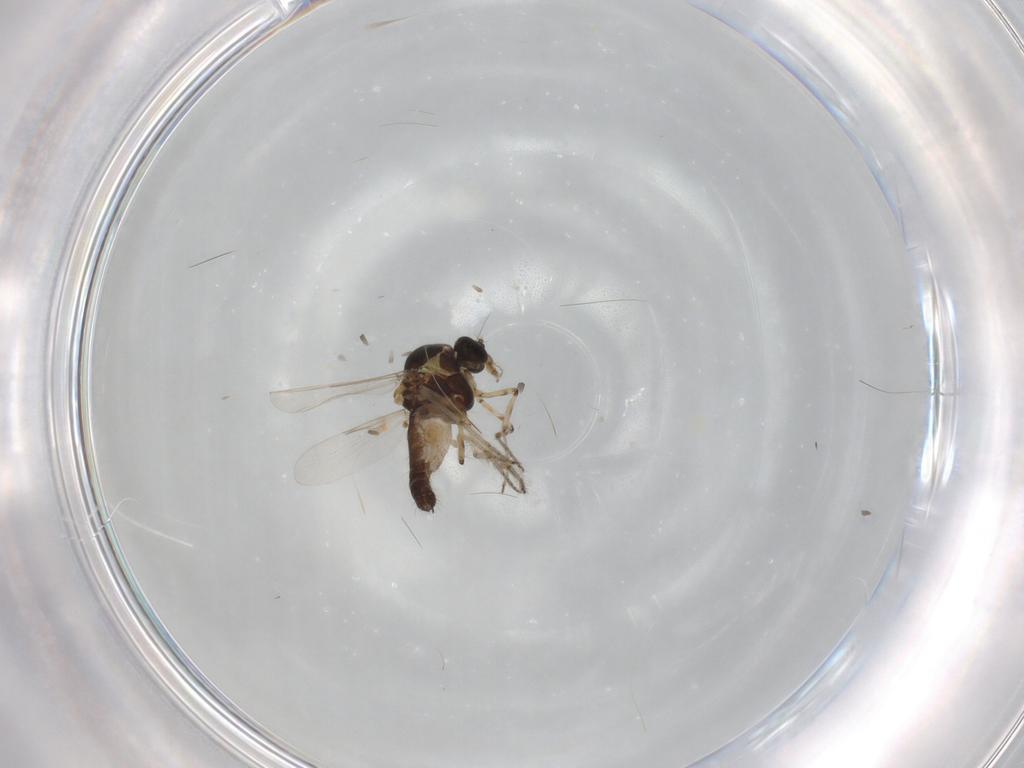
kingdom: Animalia
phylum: Arthropoda
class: Insecta
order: Diptera
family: Ceratopogonidae
